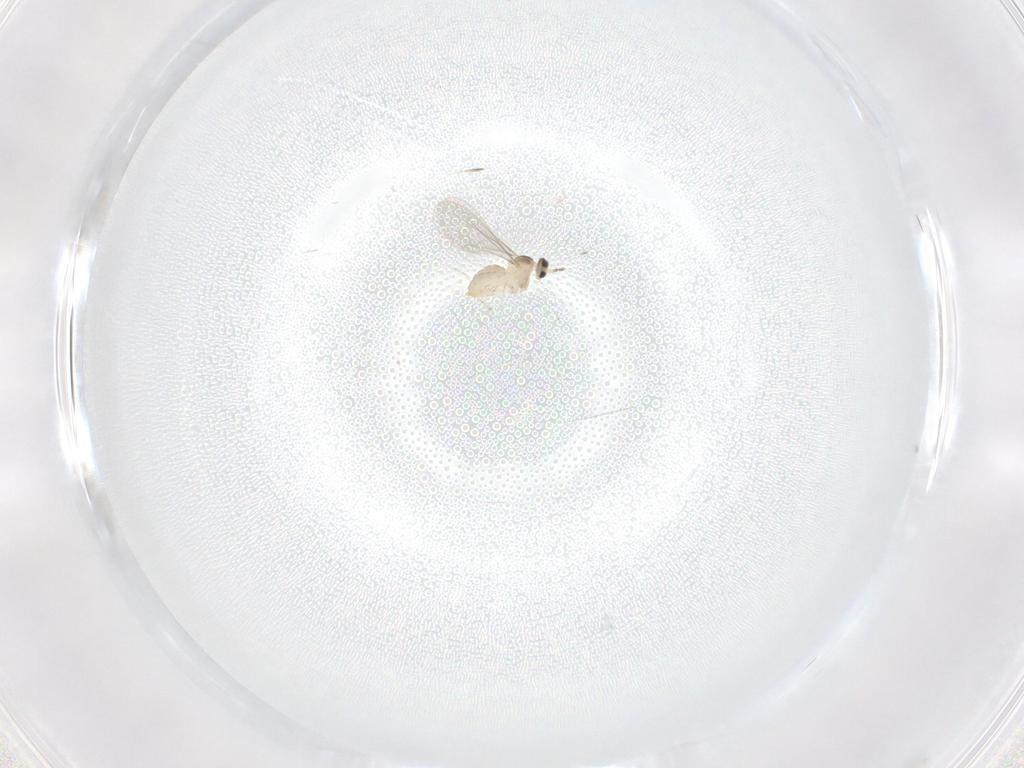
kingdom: Animalia
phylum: Arthropoda
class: Insecta
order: Diptera
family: Cecidomyiidae
